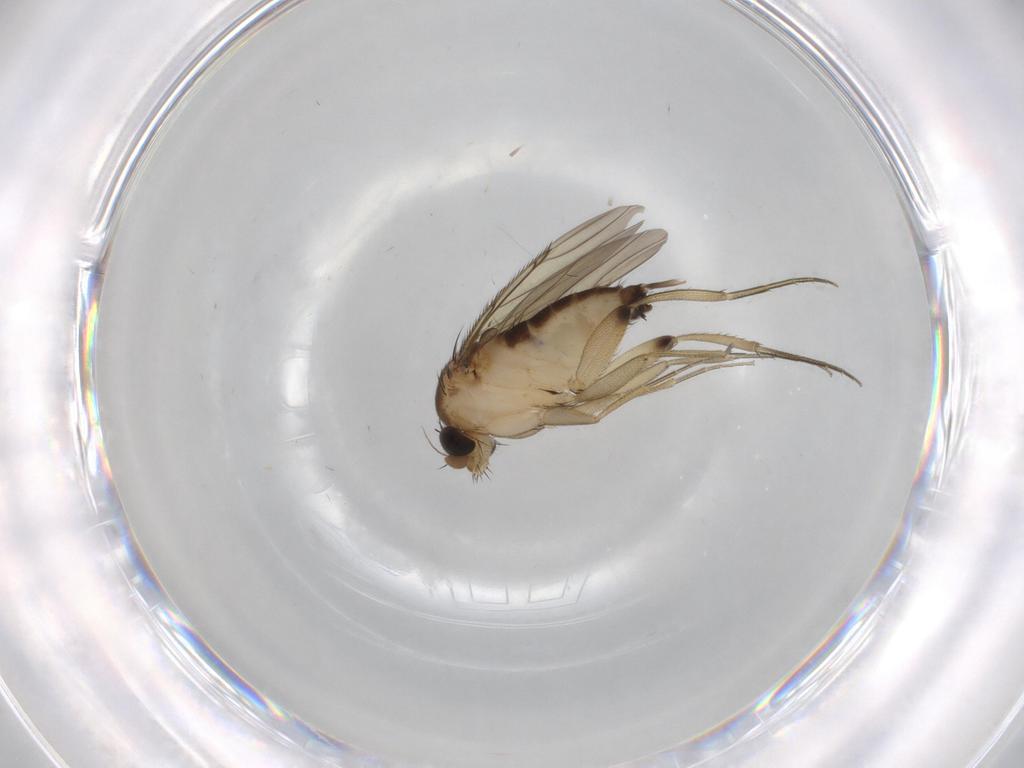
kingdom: Animalia
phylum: Arthropoda
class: Insecta
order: Diptera
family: Phoridae
